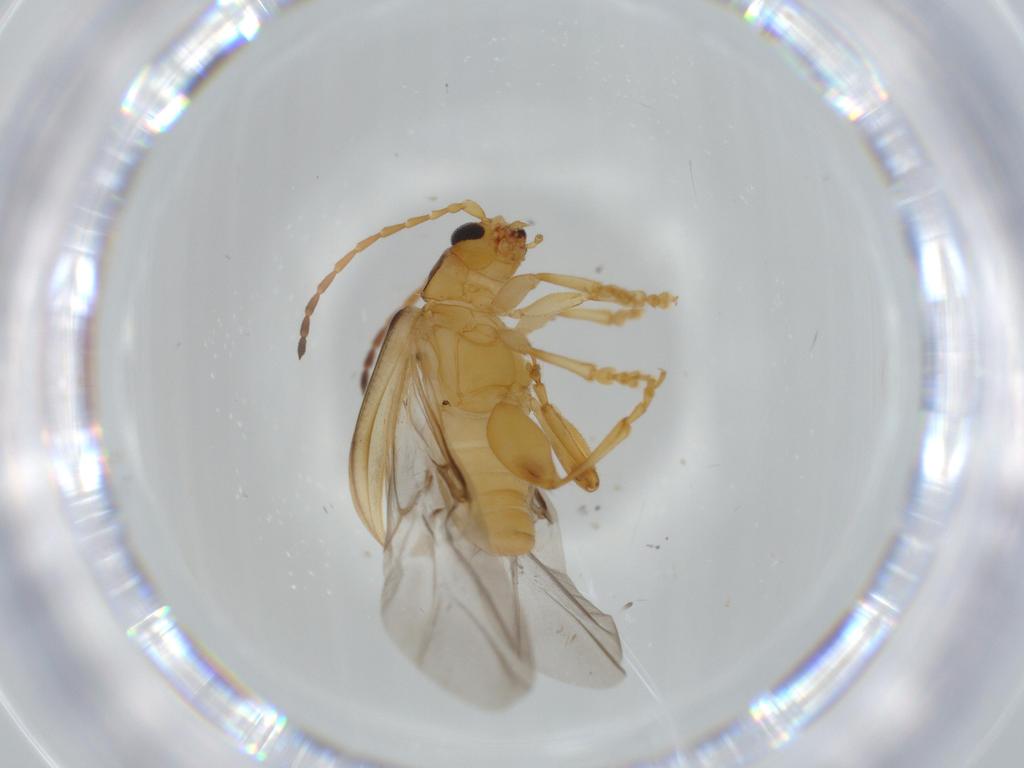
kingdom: Animalia
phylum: Arthropoda
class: Insecta
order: Coleoptera
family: Chrysomelidae
